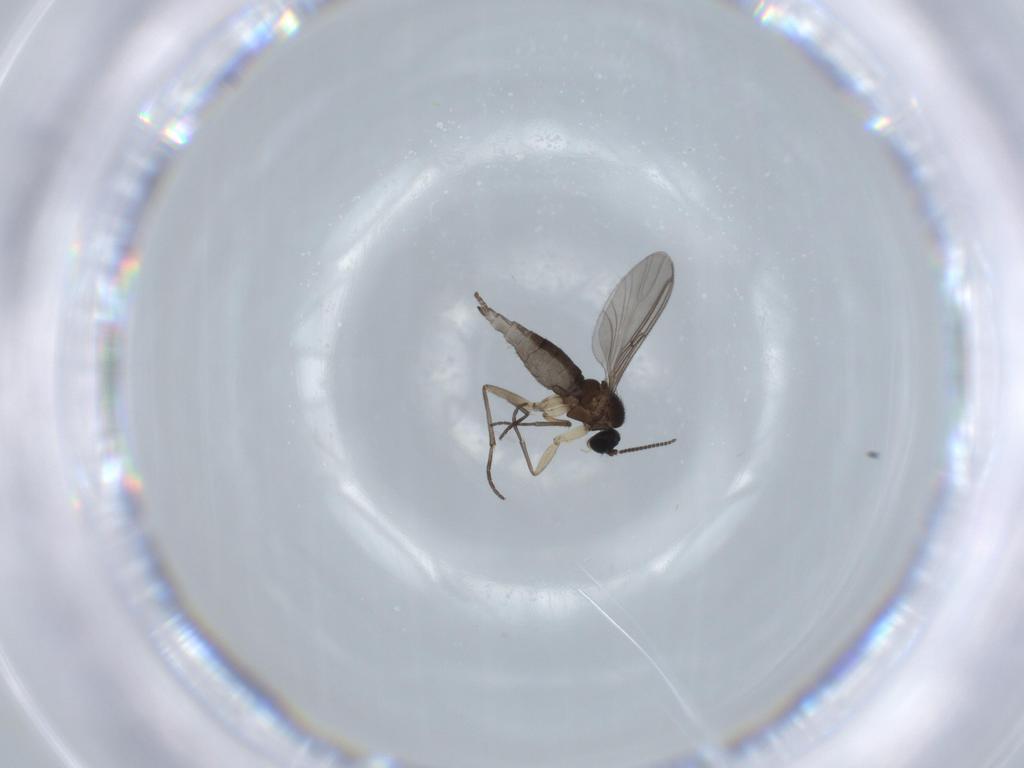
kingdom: Animalia
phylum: Arthropoda
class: Insecta
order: Diptera
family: Sciaridae
